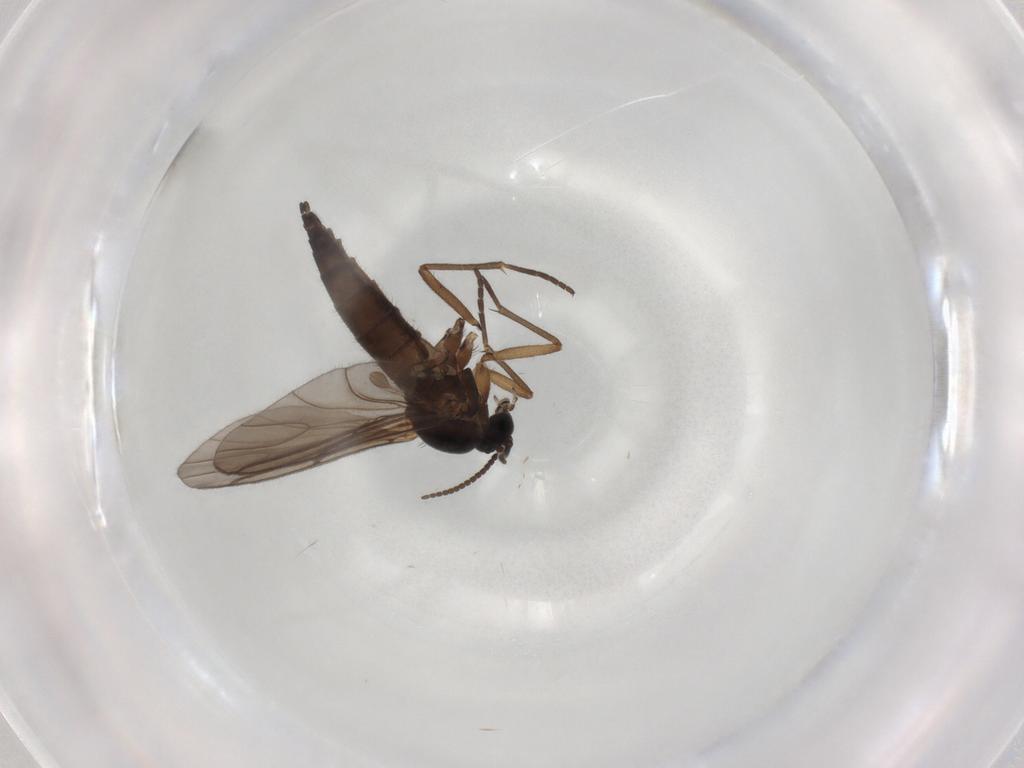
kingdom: Animalia
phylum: Arthropoda
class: Insecta
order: Diptera
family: Sciaridae
